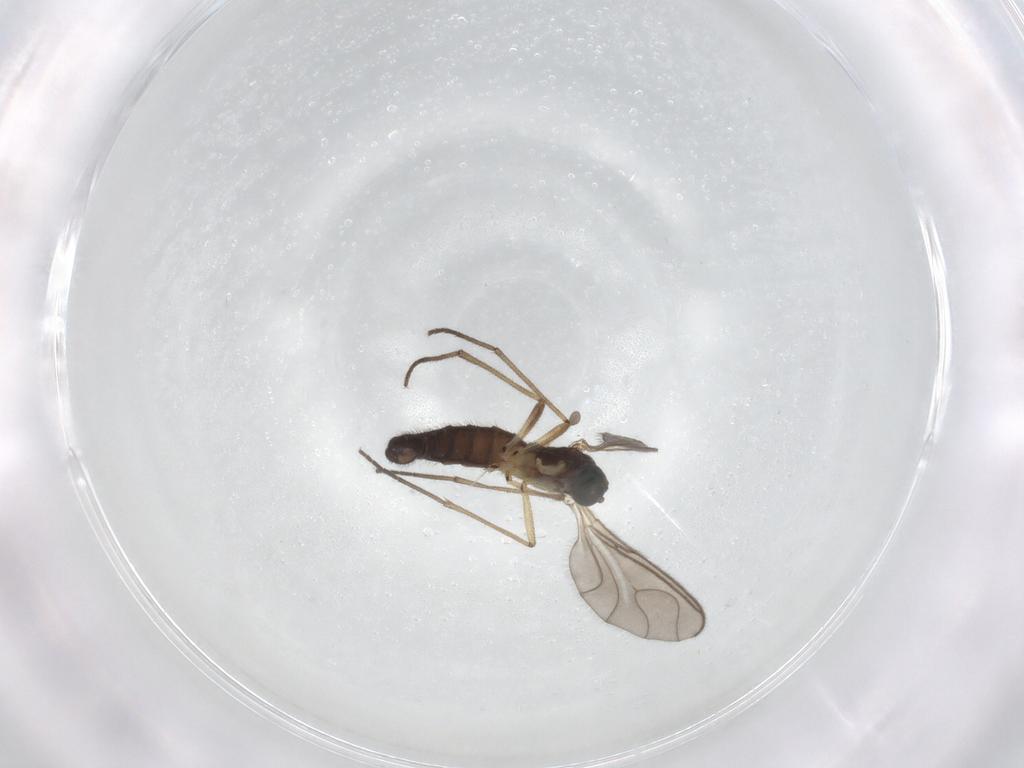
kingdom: Animalia
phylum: Arthropoda
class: Insecta
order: Diptera
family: Sciaridae
